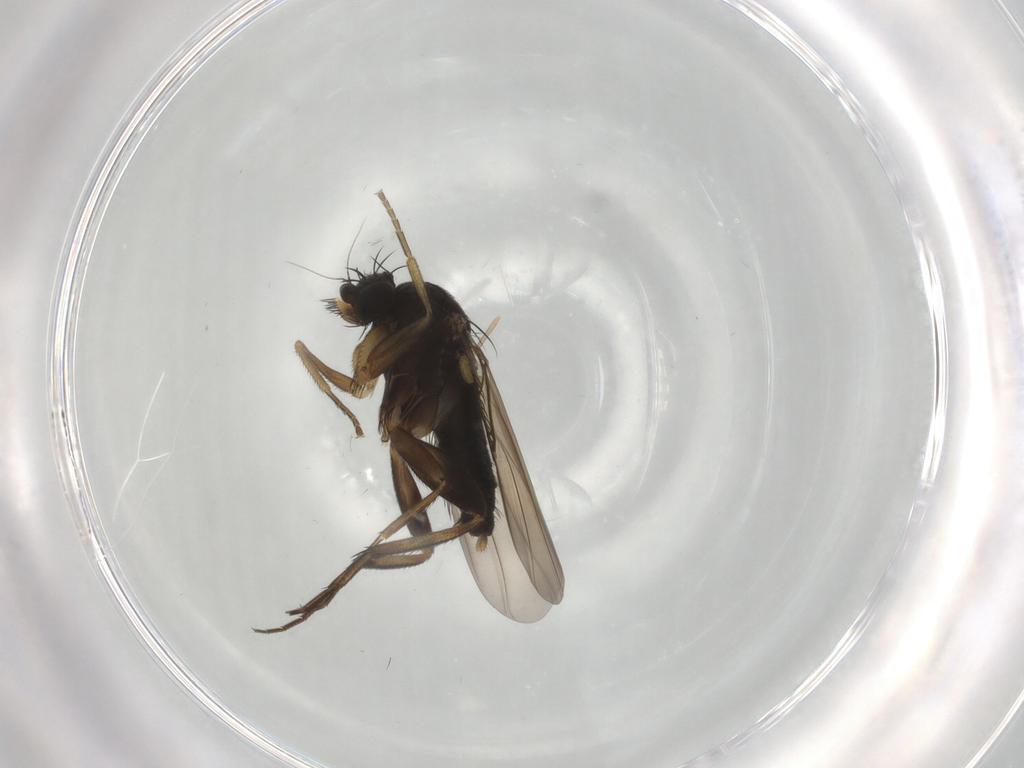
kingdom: Animalia
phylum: Arthropoda
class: Insecta
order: Diptera
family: Phoridae
